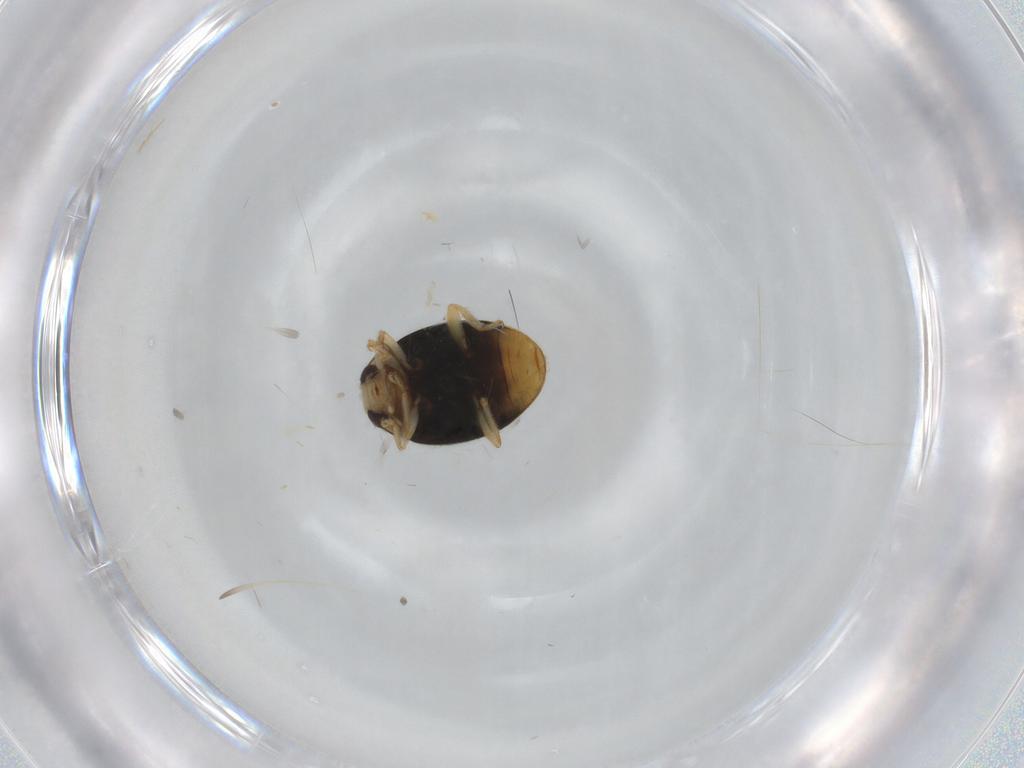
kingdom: Animalia
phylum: Arthropoda
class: Insecta
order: Coleoptera
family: Coccinellidae
